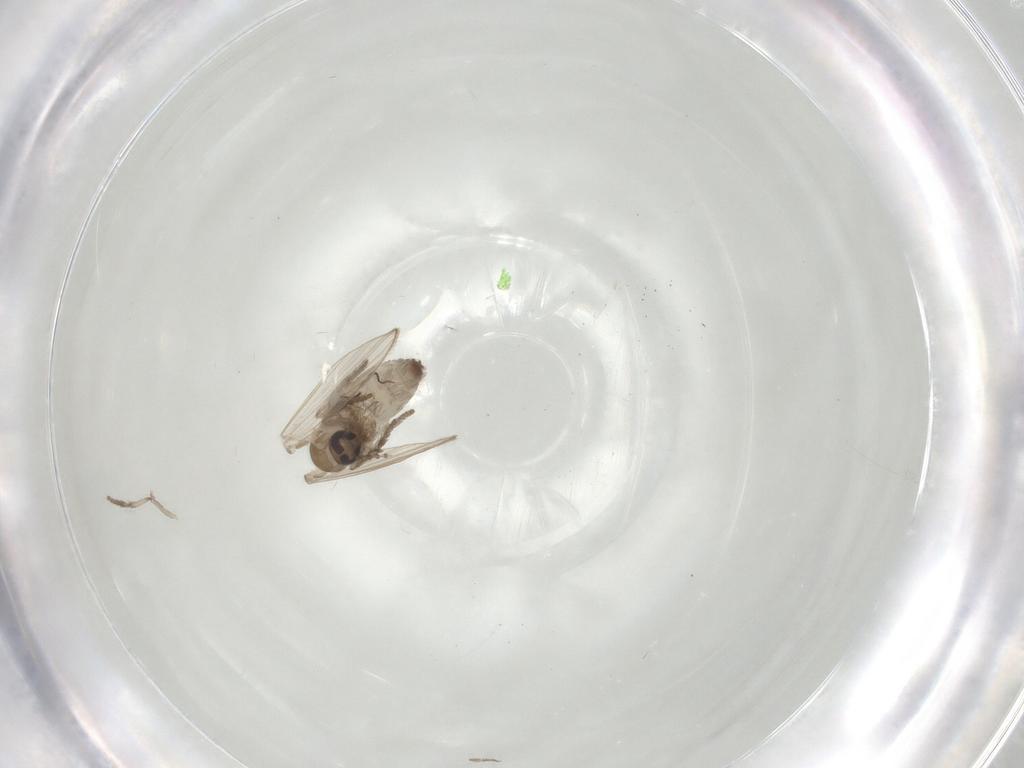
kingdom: Animalia
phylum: Arthropoda
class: Insecta
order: Diptera
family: Psychodidae
